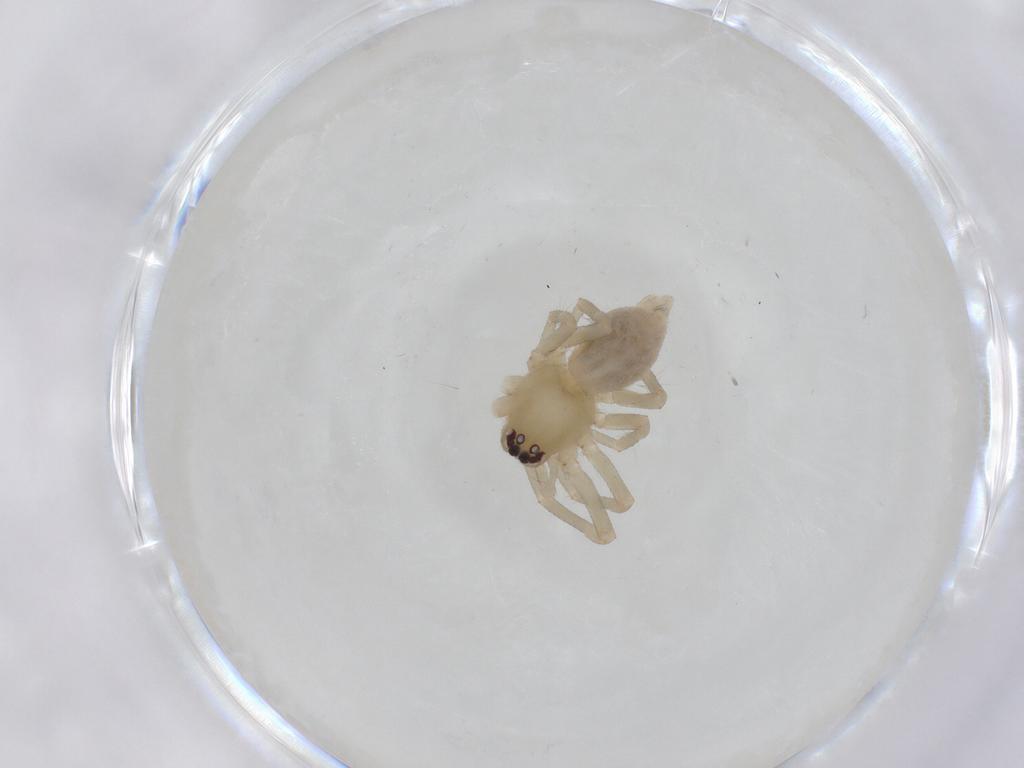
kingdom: Animalia
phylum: Arthropoda
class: Arachnida
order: Araneae
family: Cheiracanthiidae
